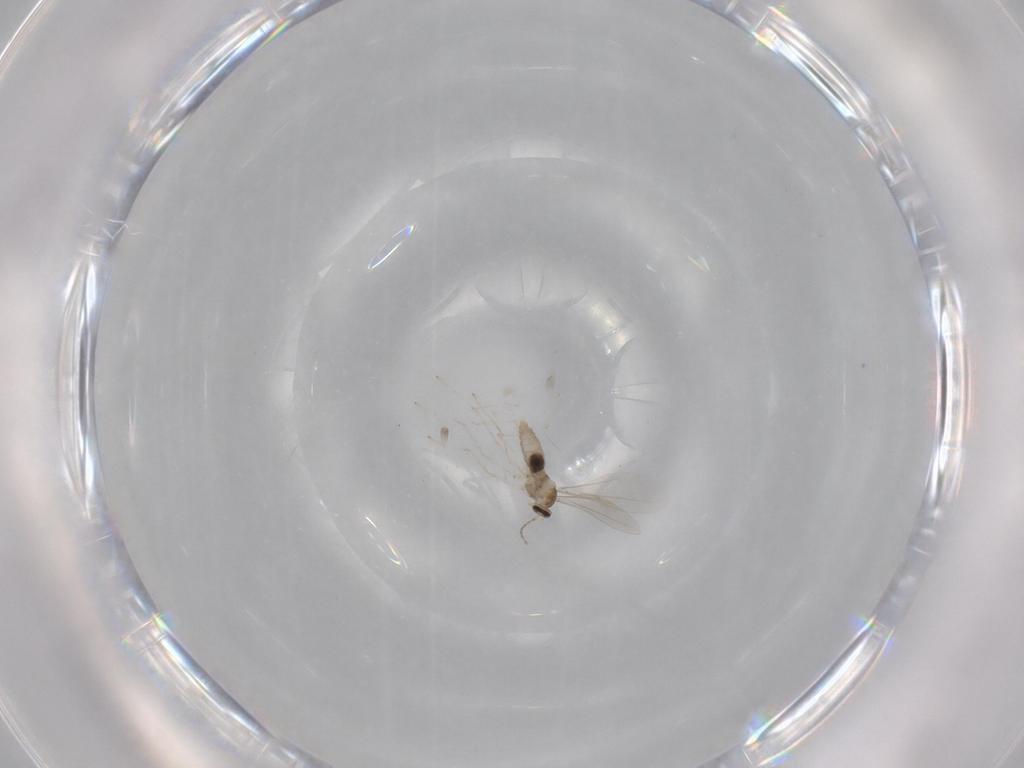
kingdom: Animalia
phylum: Arthropoda
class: Insecta
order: Diptera
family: Cecidomyiidae
